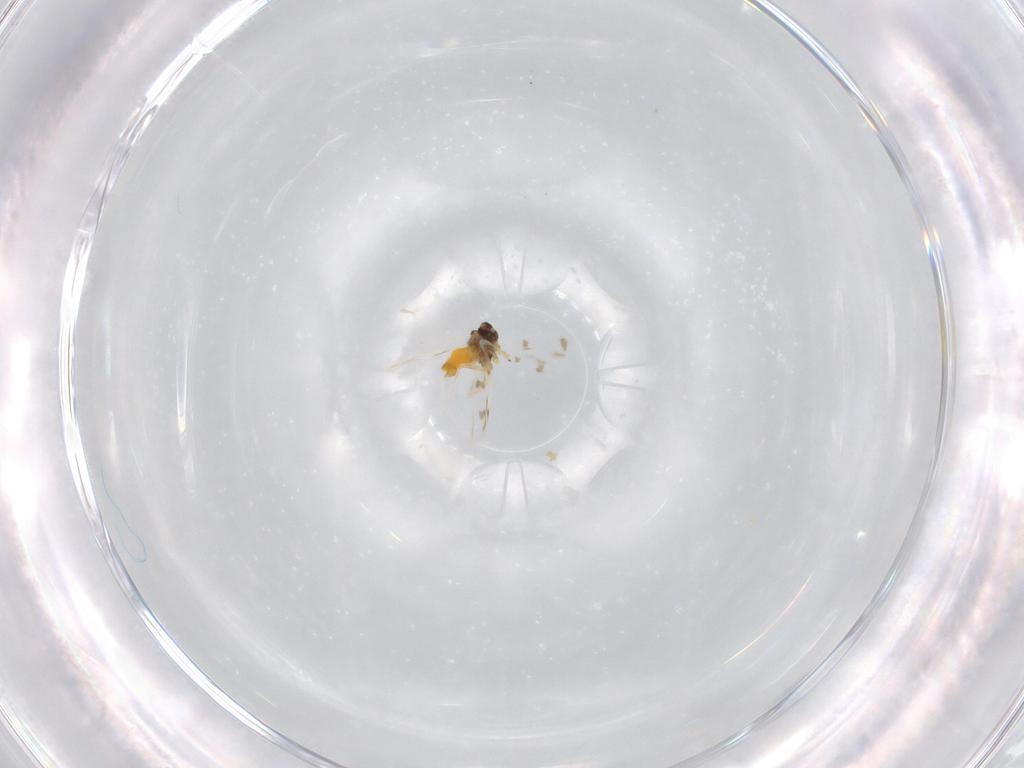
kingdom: Animalia
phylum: Arthropoda
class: Insecta
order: Hemiptera
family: Aleyrodidae
